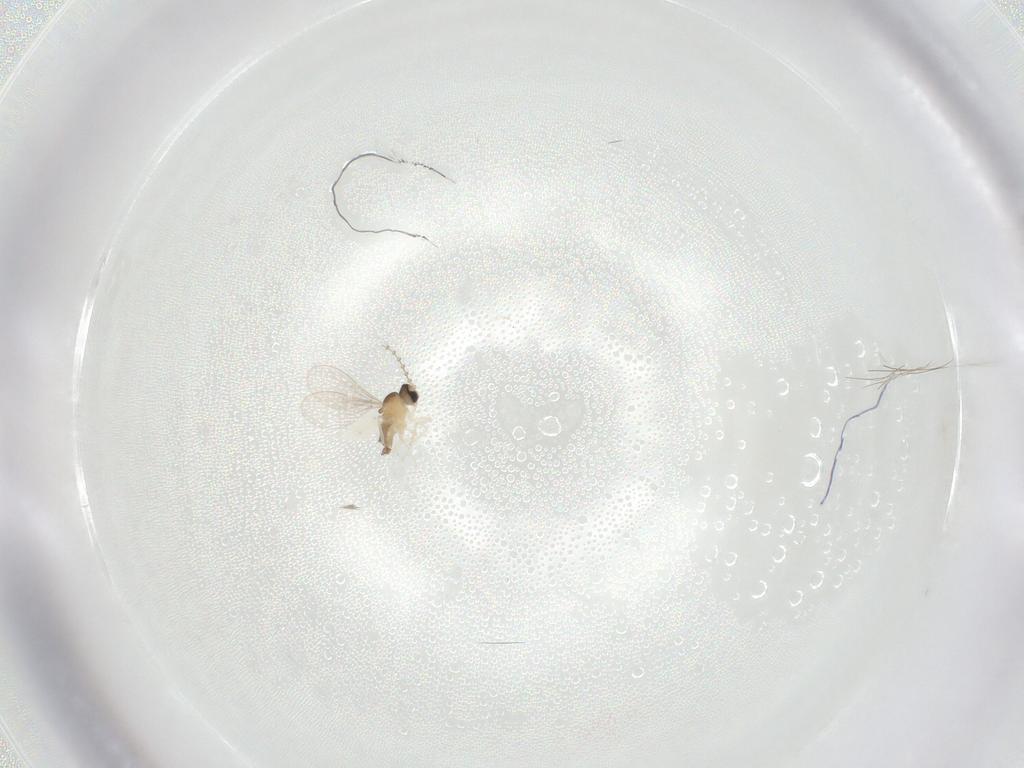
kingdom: Animalia
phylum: Arthropoda
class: Insecta
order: Diptera
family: Cecidomyiidae
